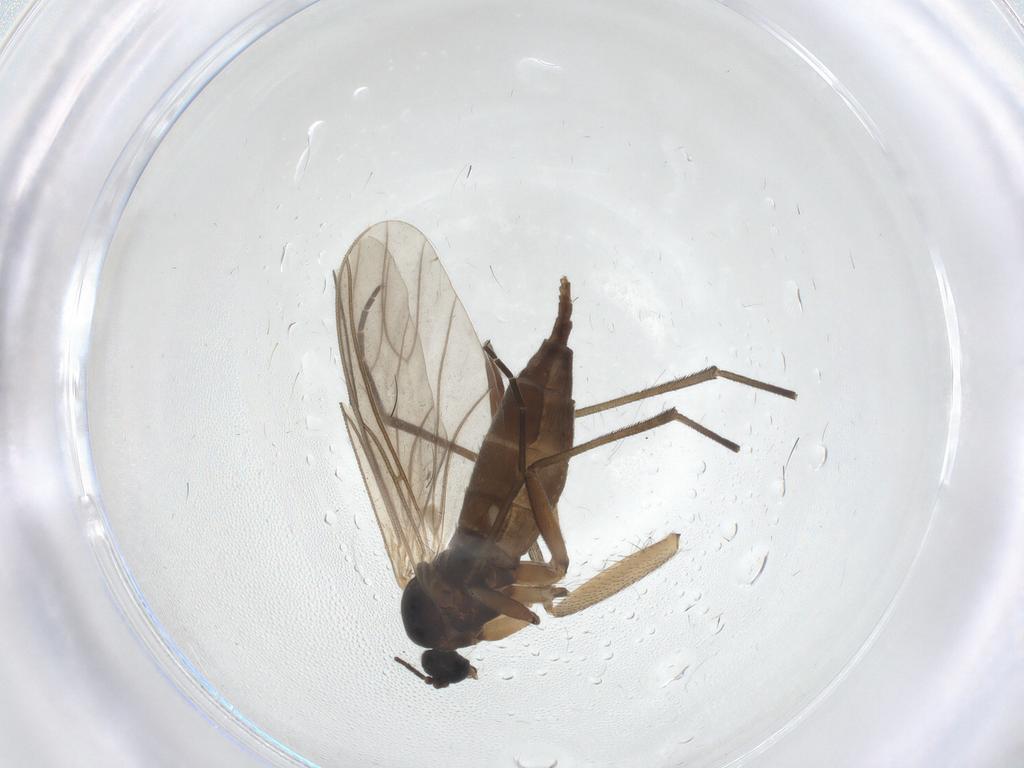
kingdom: Animalia
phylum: Arthropoda
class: Insecta
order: Diptera
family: Sciaridae
